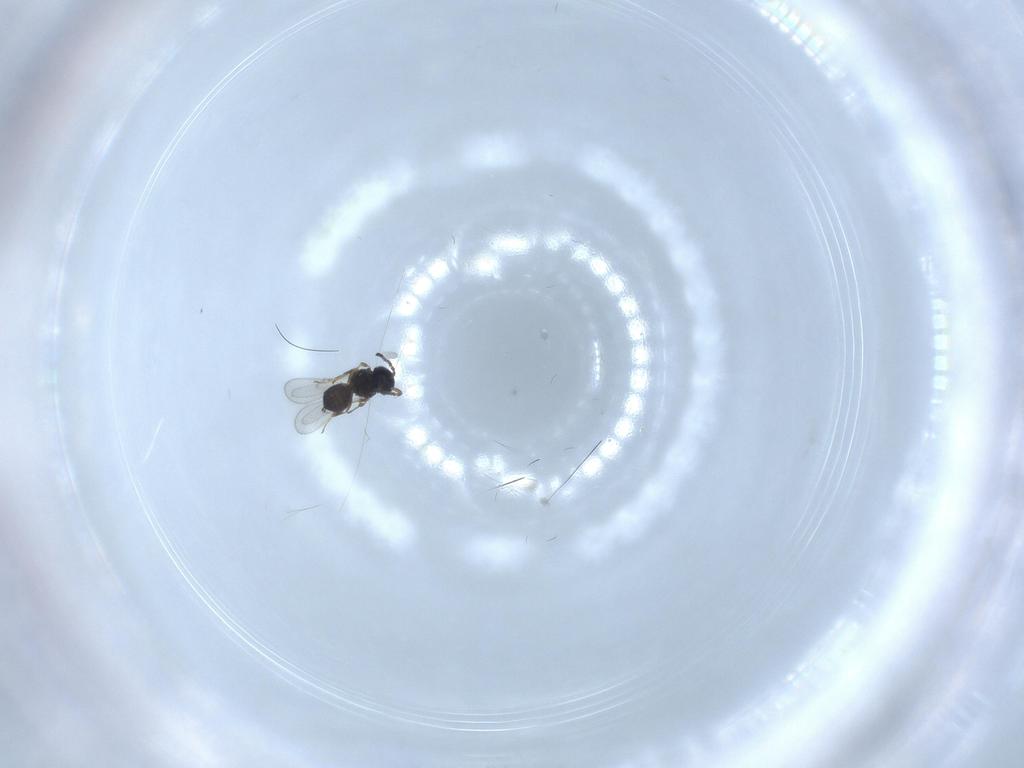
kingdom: Animalia
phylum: Arthropoda
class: Insecta
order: Hymenoptera
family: Scelionidae
